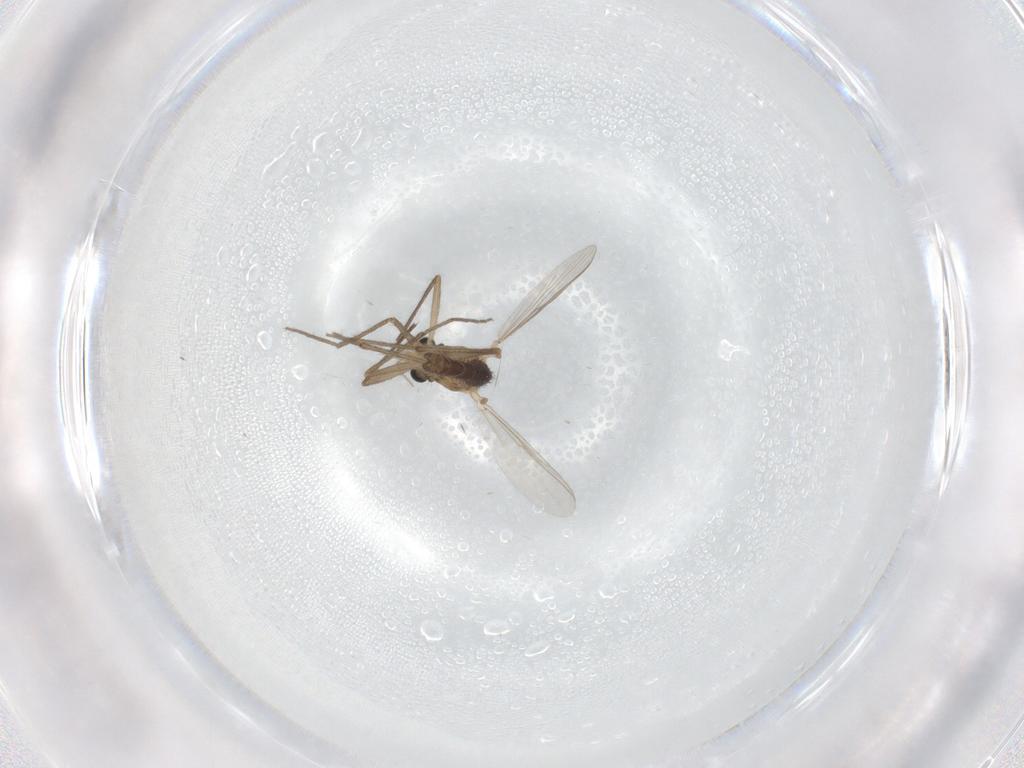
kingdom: Animalia
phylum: Arthropoda
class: Insecta
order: Diptera
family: Chironomidae
